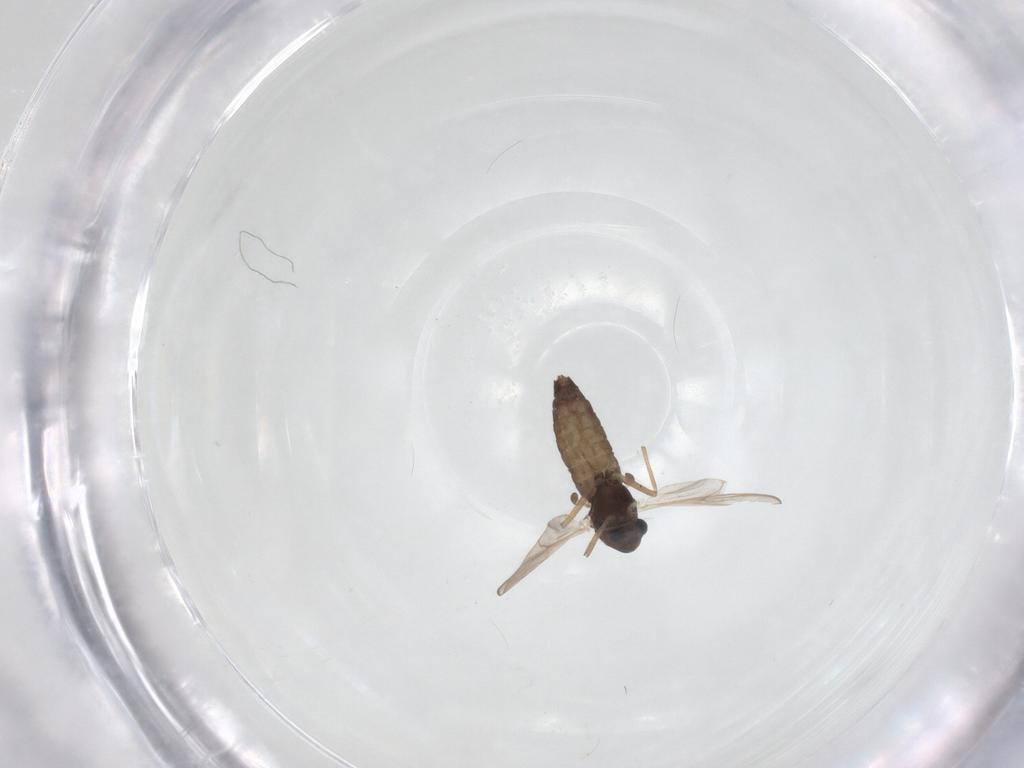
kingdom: Animalia
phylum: Arthropoda
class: Insecta
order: Diptera
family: Chironomidae
